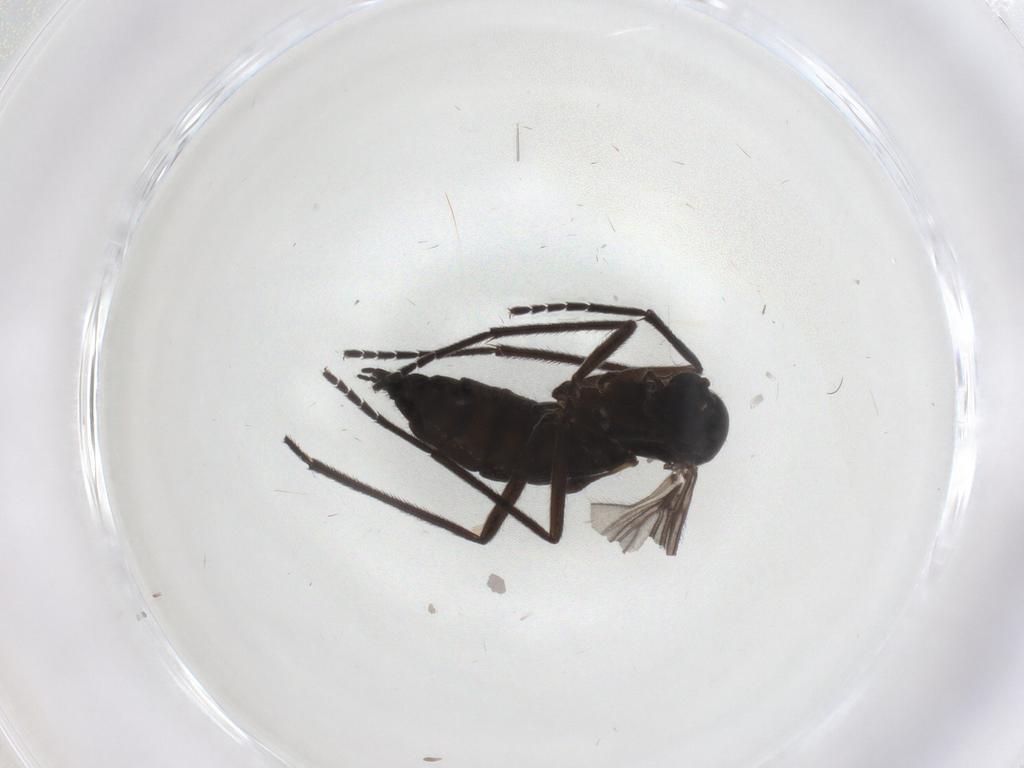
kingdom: Animalia
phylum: Arthropoda
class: Insecta
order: Diptera
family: Sciaridae
